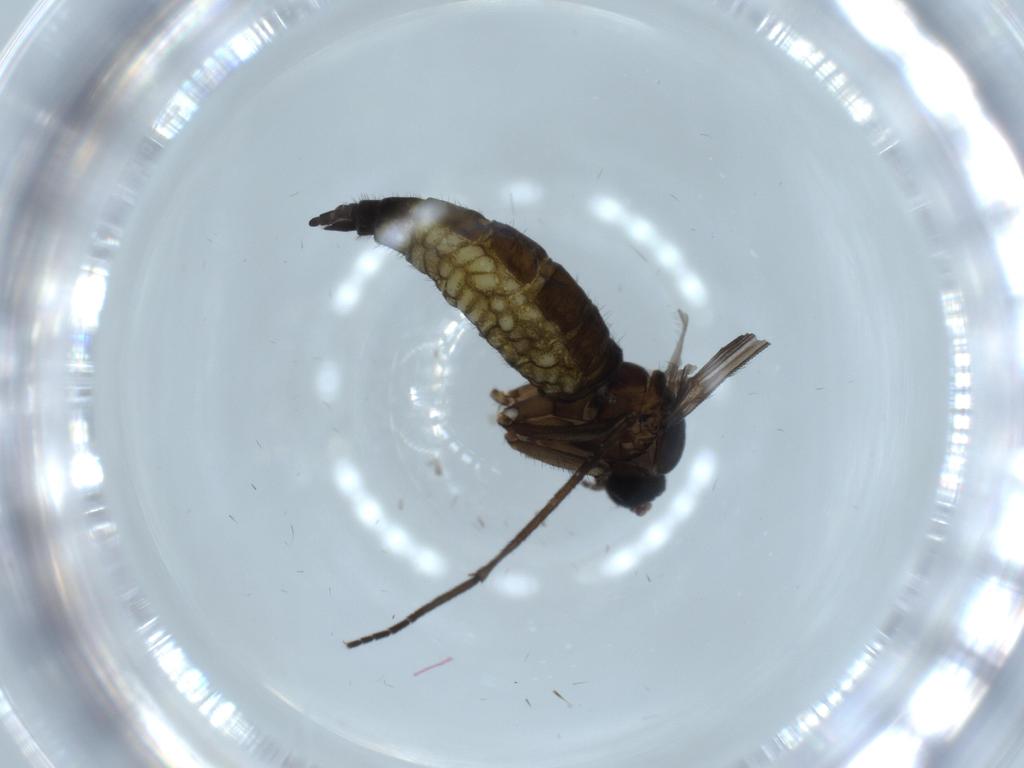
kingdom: Animalia
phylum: Arthropoda
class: Insecta
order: Diptera
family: Sciaridae
